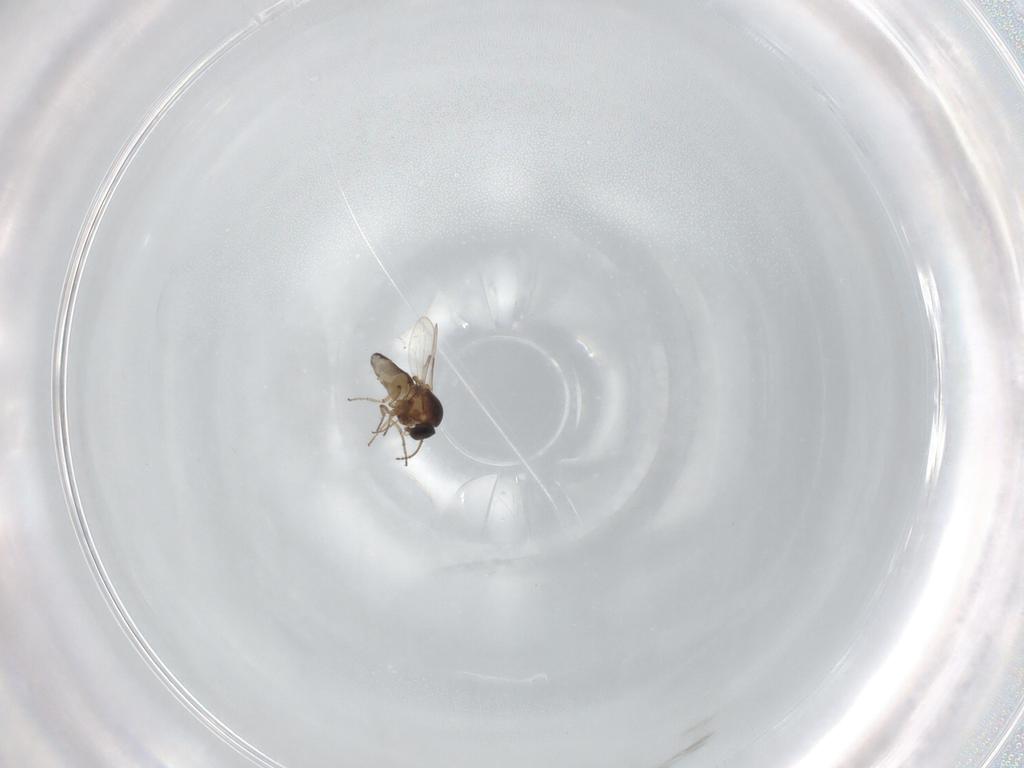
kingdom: Animalia
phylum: Arthropoda
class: Insecta
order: Diptera
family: Ceratopogonidae
